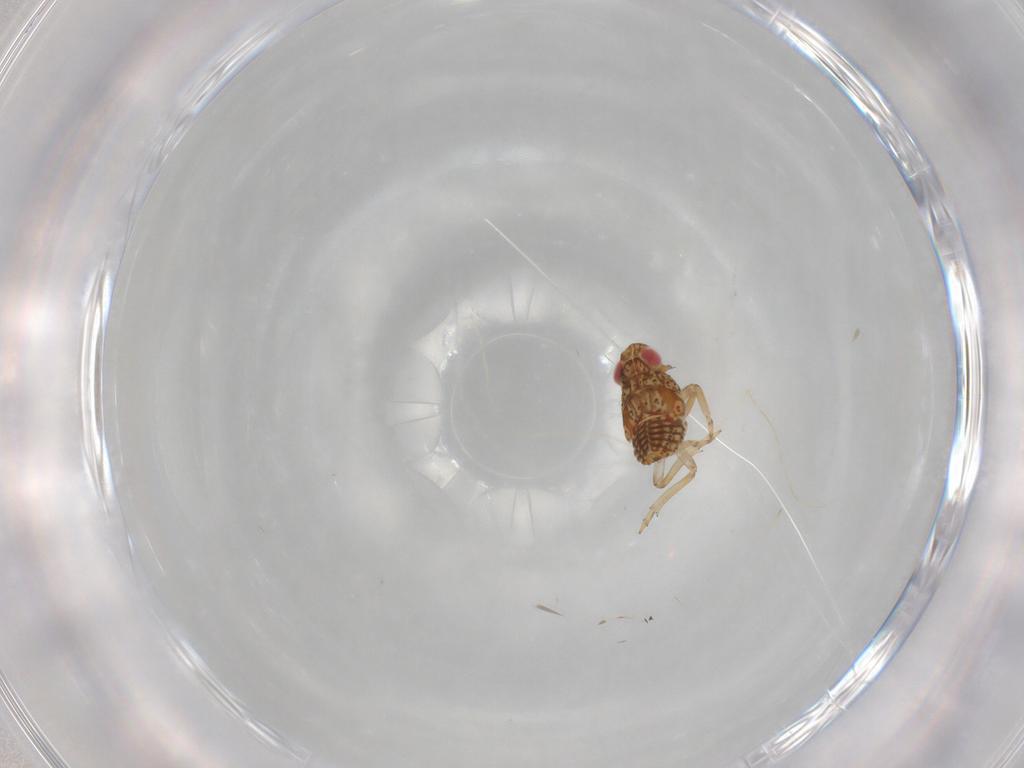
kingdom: Animalia
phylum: Arthropoda
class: Insecta
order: Hemiptera
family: Issidae
